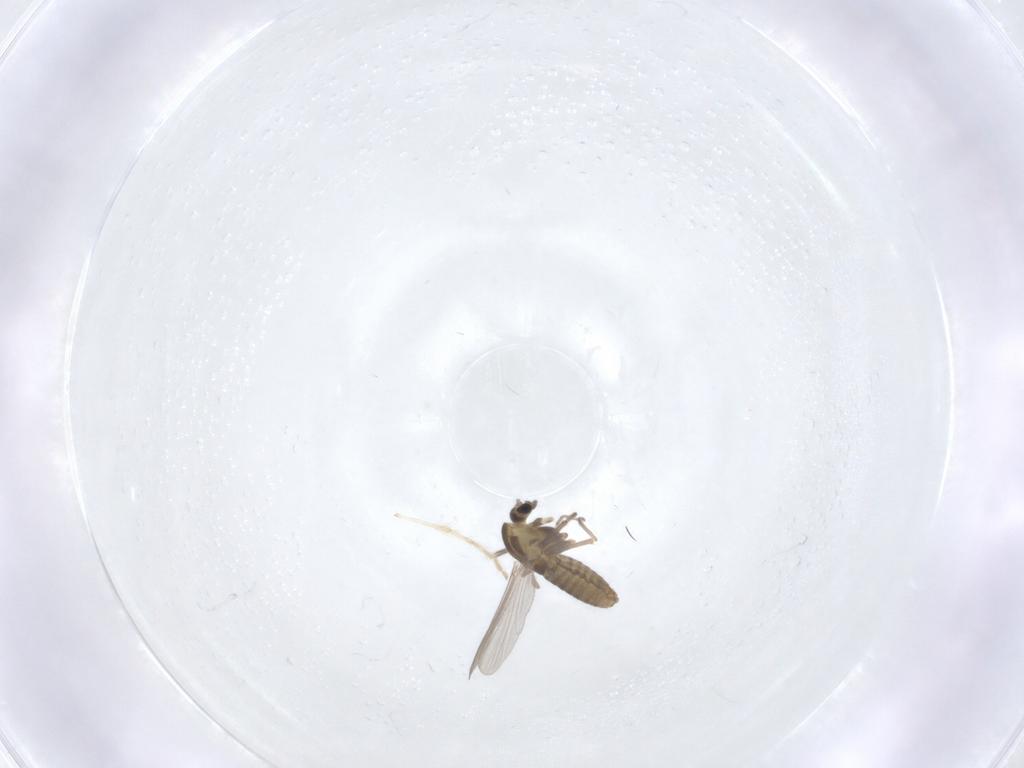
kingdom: Animalia
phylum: Arthropoda
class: Insecta
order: Diptera
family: Chironomidae
